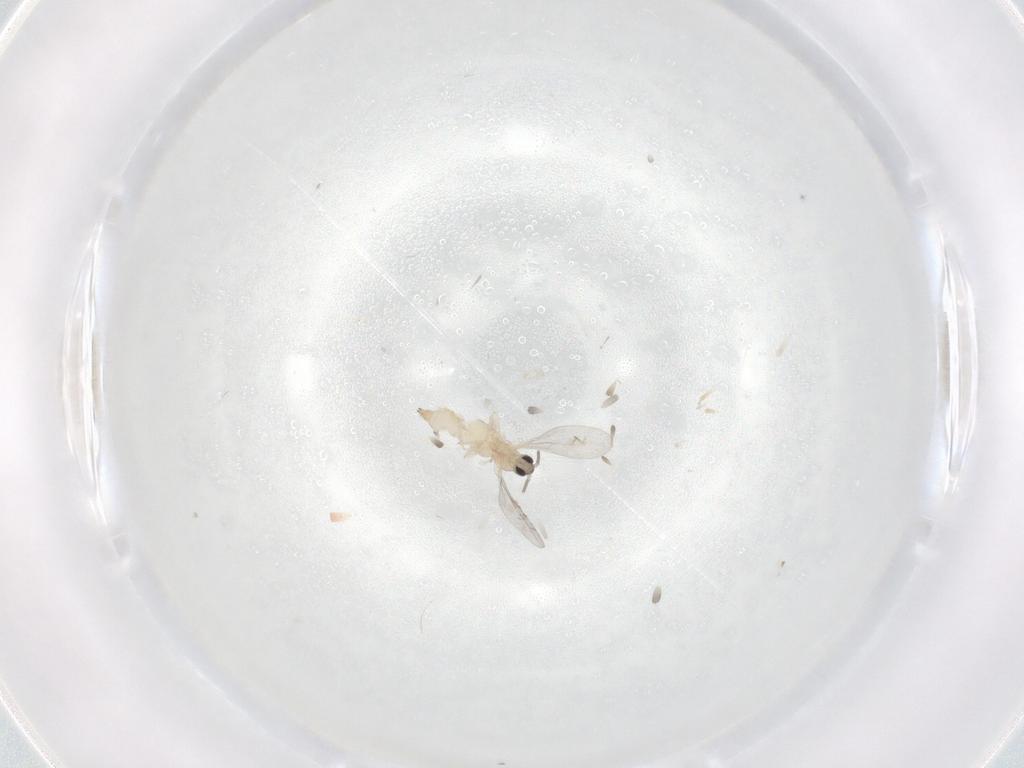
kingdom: Animalia
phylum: Arthropoda
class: Insecta
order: Diptera
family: Cecidomyiidae
